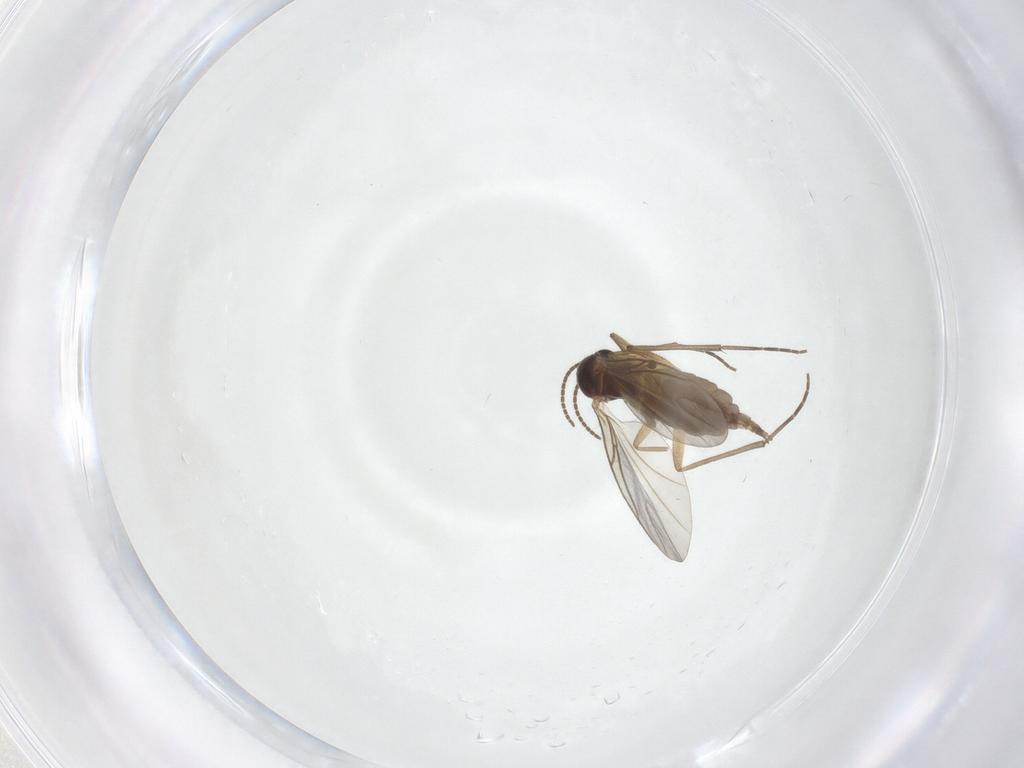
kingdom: Animalia
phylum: Arthropoda
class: Insecta
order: Diptera
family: Sciaridae
